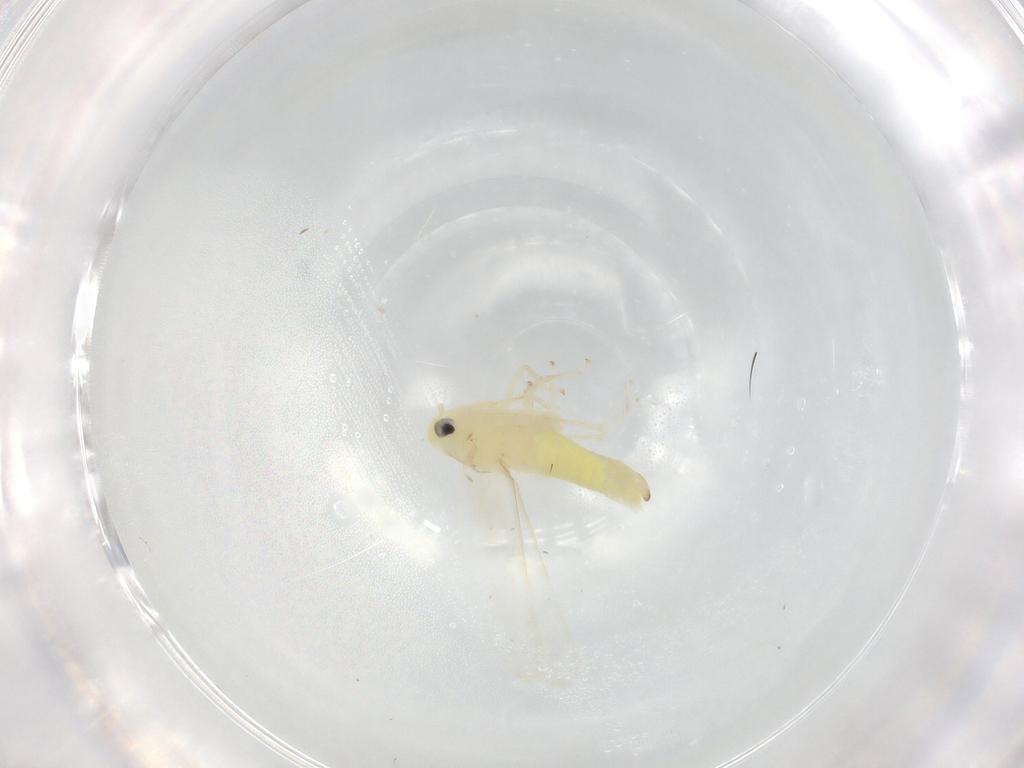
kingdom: Animalia
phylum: Arthropoda
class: Insecta
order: Hemiptera
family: Cicadellidae
